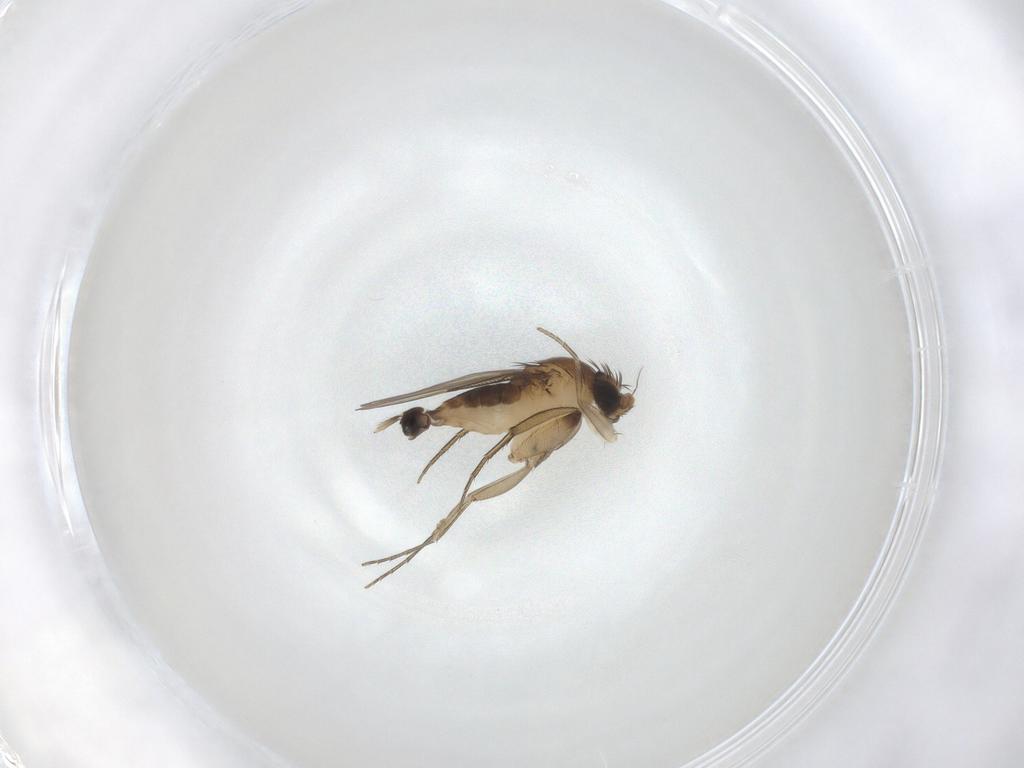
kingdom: Animalia
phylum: Arthropoda
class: Insecta
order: Diptera
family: Phoridae
